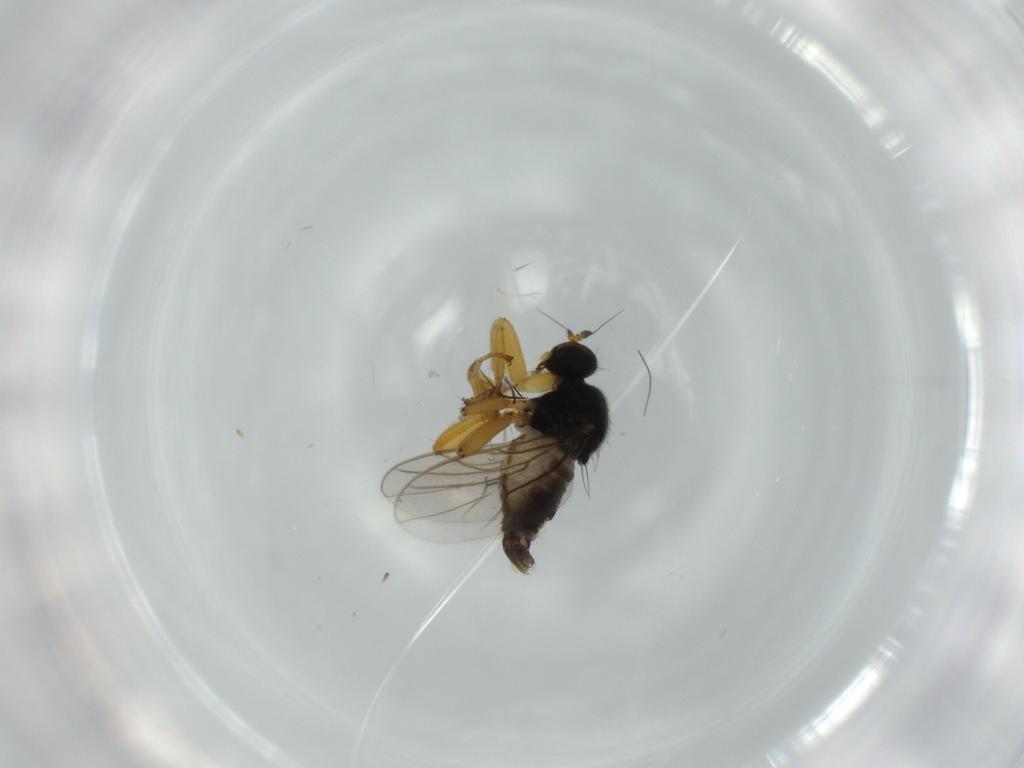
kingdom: Animalia
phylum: Arthropoda
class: Insecta
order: Diptera
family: Hybotidae
